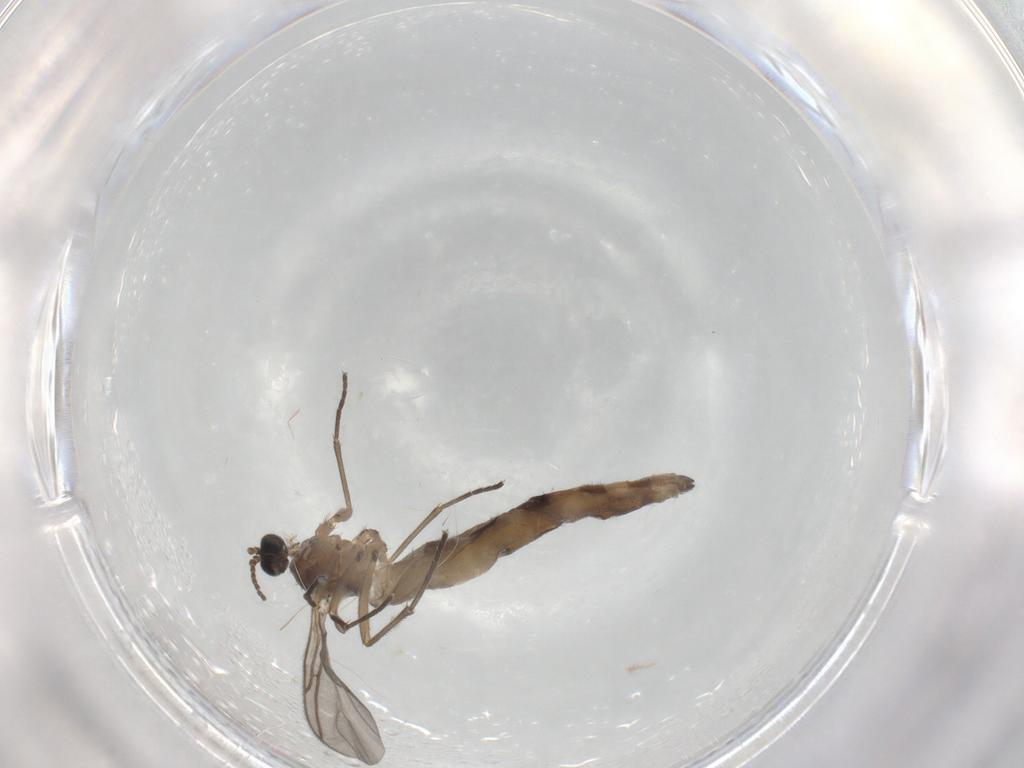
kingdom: Animalia
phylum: Arthropoda
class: Insecta
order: Diptera
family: Sciaridae
